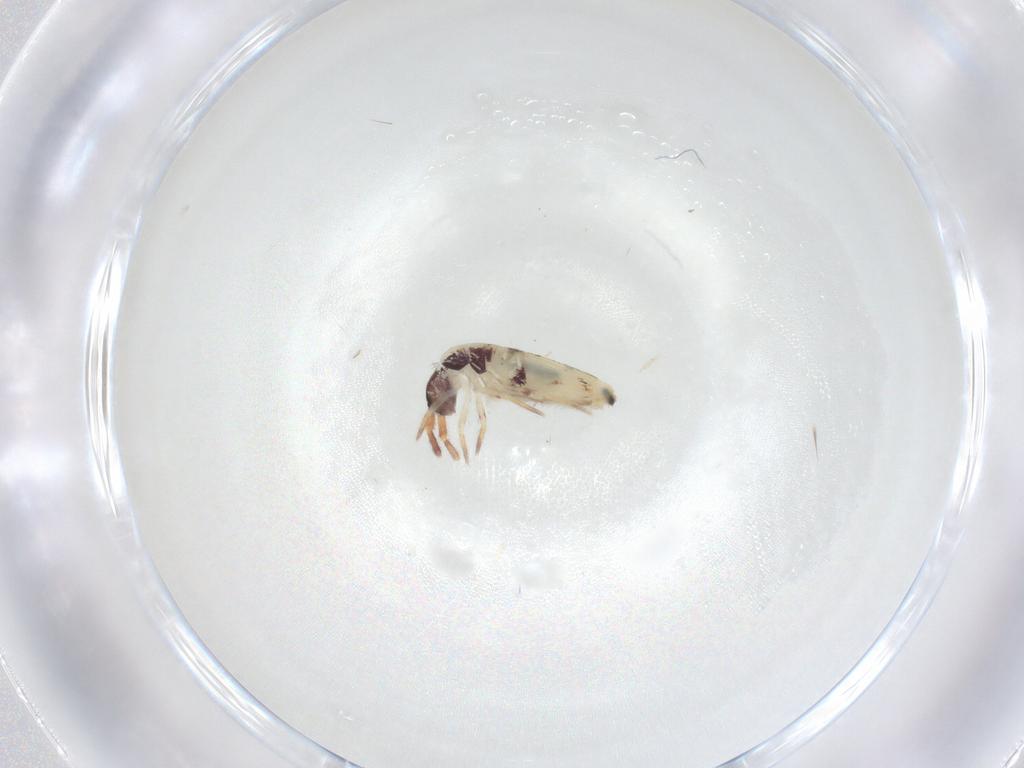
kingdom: Animalia
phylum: Arthropoda
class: Collembola
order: Entomobryomorpha
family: Entomobryidae
